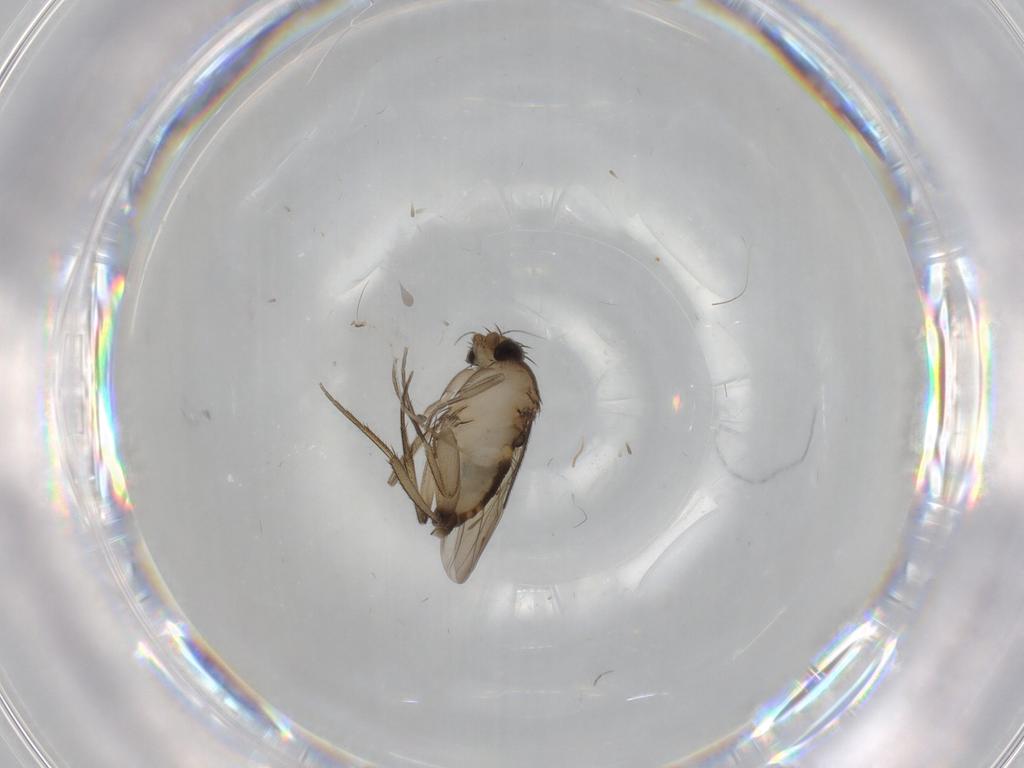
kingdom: Animalia
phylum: Arthropoda
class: Insecta
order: Diptera
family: Phoridae
